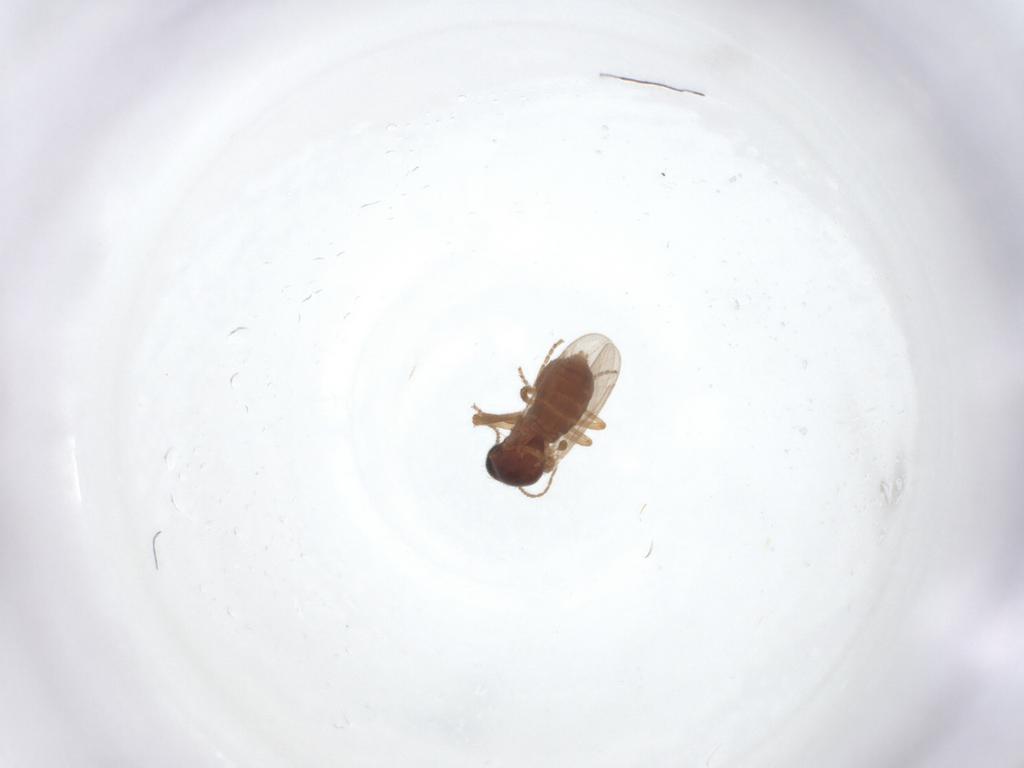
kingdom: Animalia
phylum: Arthropoda
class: Insecta
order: Diptera
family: Ceratopogonidae
